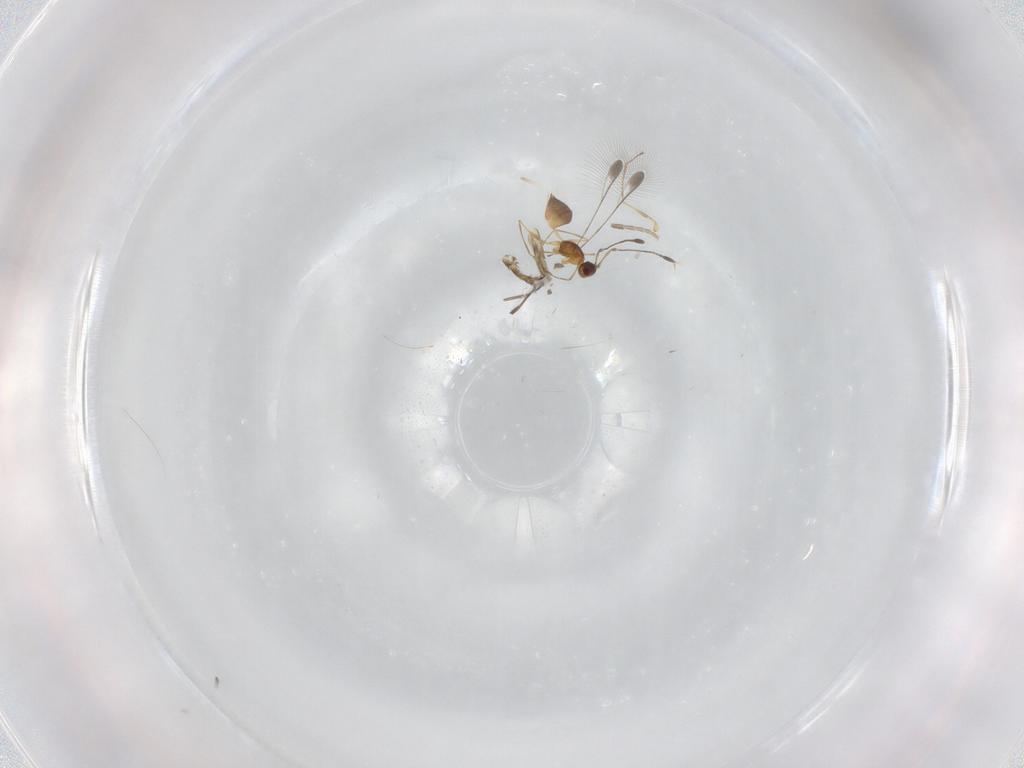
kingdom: Animalia
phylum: Arthropoda
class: Insecta
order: Hymenoptera
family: Mymaridae
